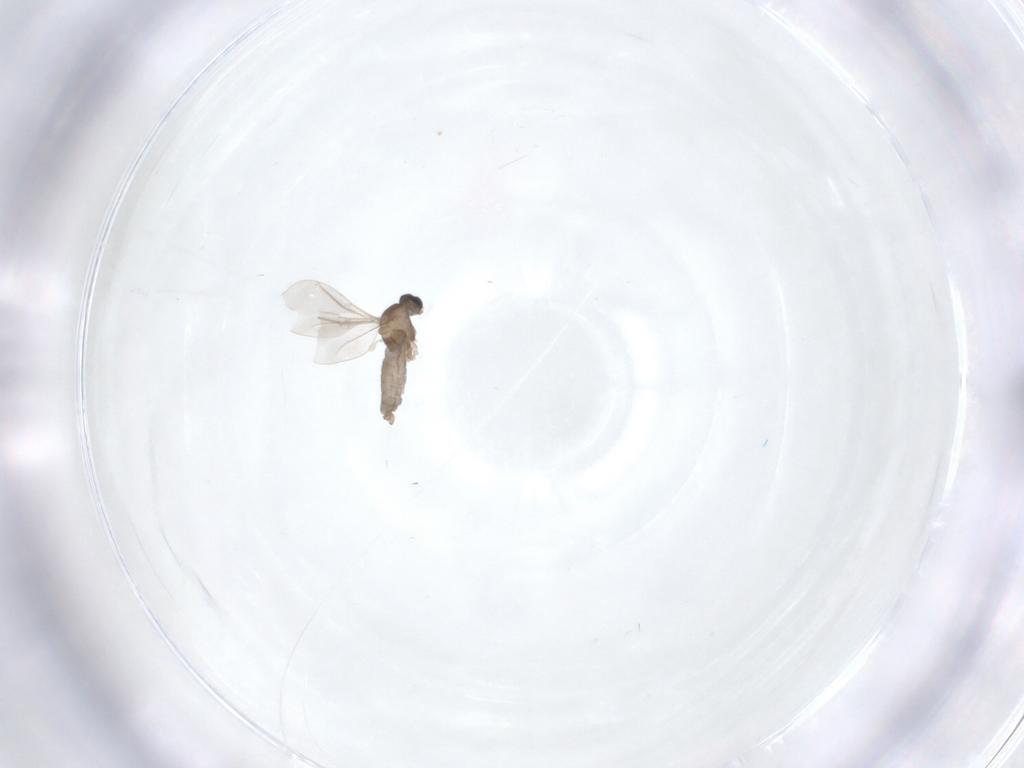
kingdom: Animalia
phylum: Arthropoda
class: Insecta
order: Diptera
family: Cecidomyiidae
